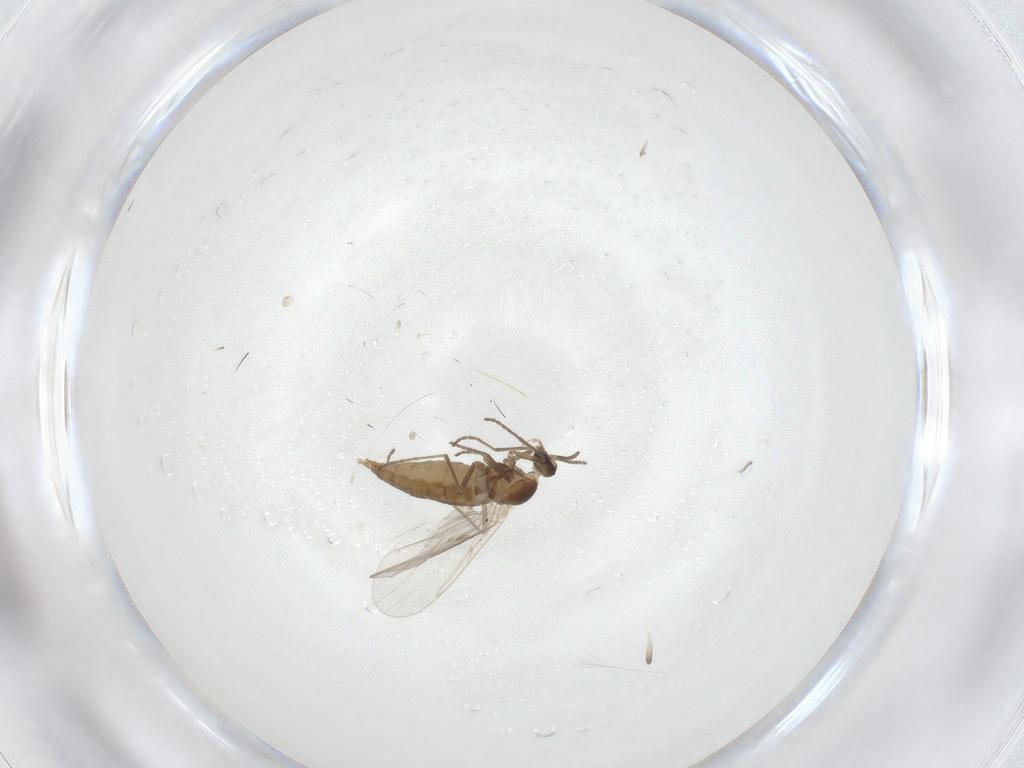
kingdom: Animalia
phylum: Arthropoda
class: Insecta
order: Diptera
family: Cecidomyiidae
